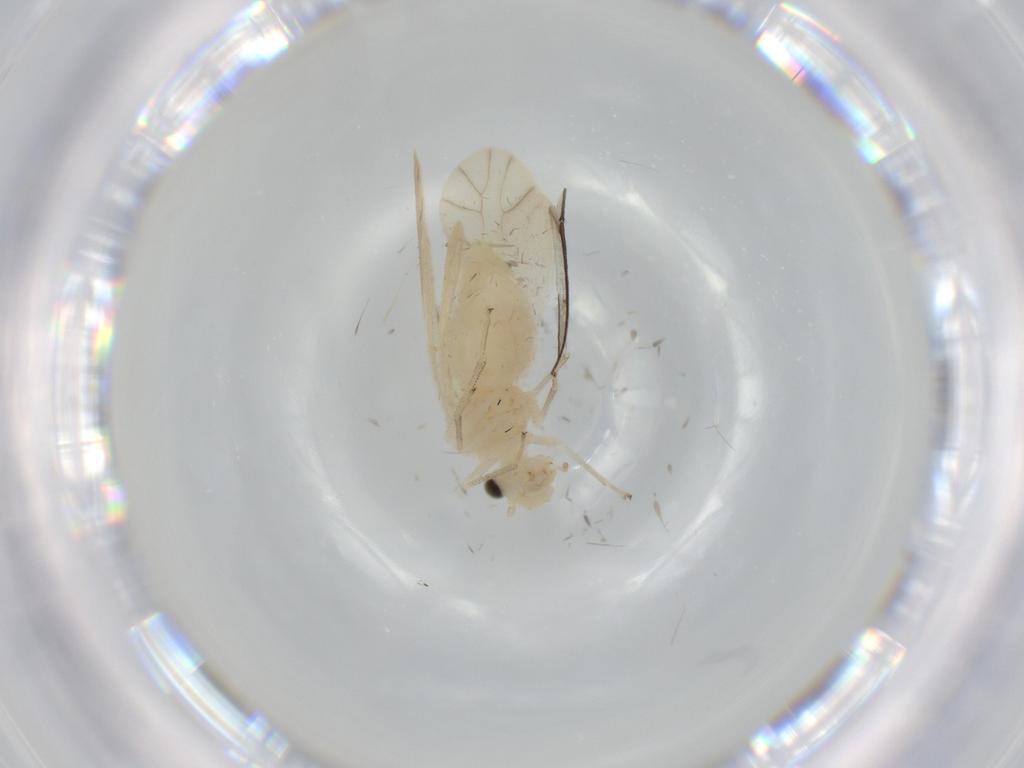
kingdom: Animalia
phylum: Arthropoda
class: Insecta
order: Psocodea
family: Caeciliusidae
